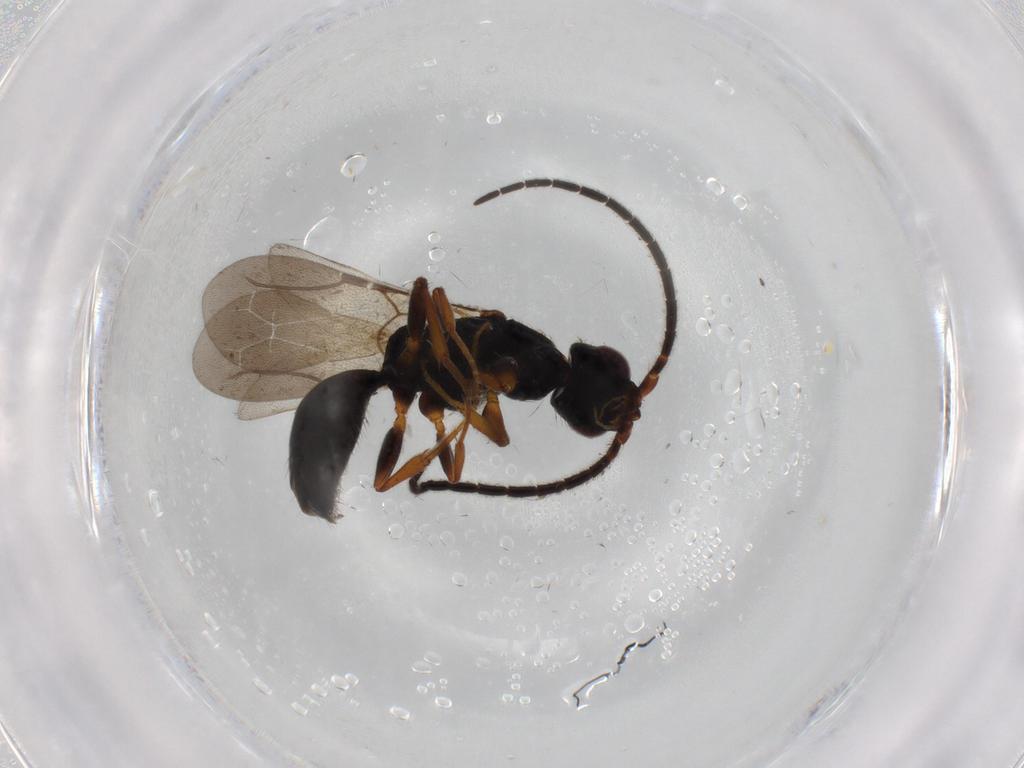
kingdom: Animalia
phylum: Arthropoda
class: Insecta
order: Hymenoptera
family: Bethylidae
